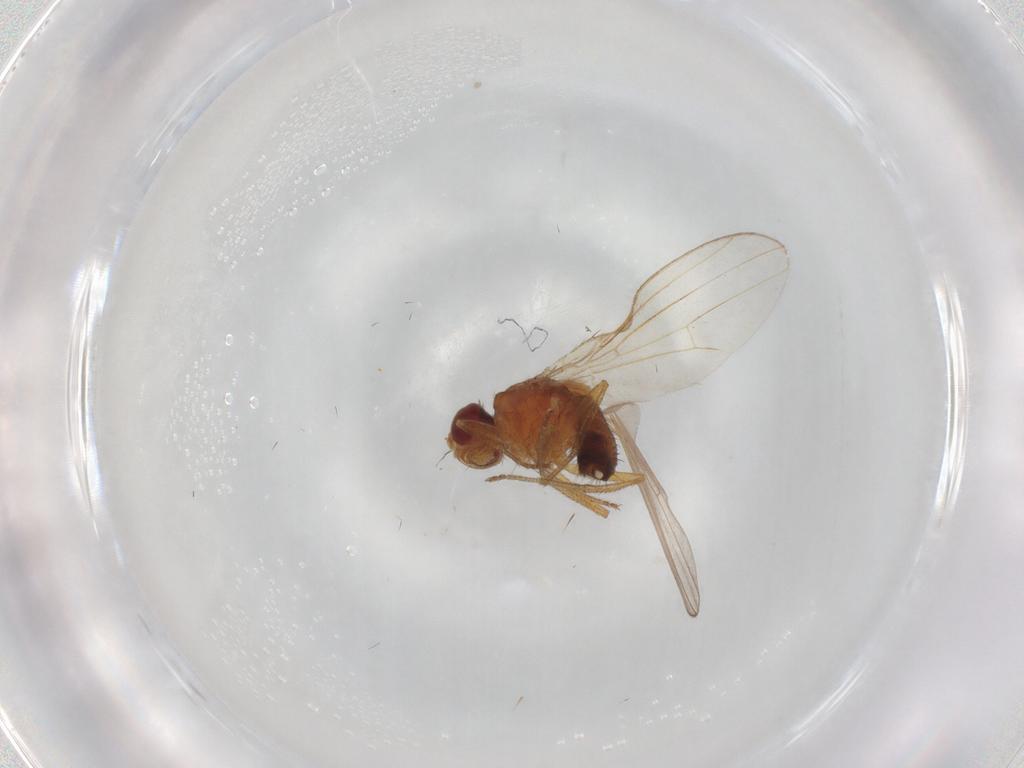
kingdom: Animalia
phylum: Arthropoda
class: Insecta
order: Diptera
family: Drosophilidae
